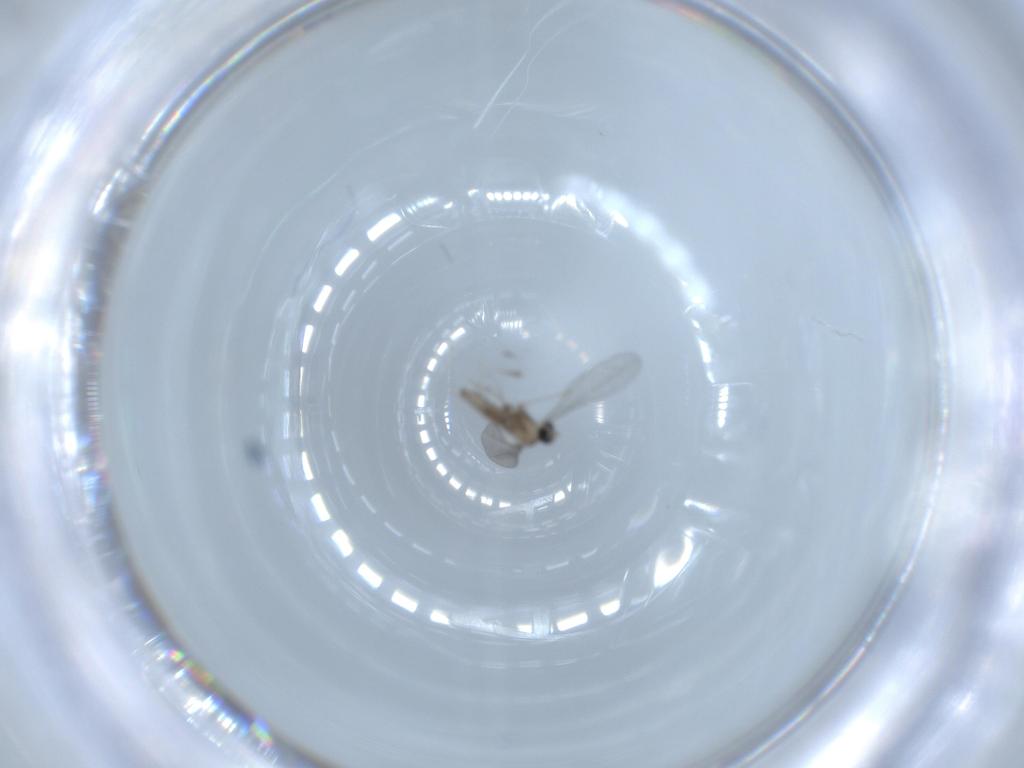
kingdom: Animalia
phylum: Arthropoda
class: Insecta
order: Diptera
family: Cecidomyiidae
